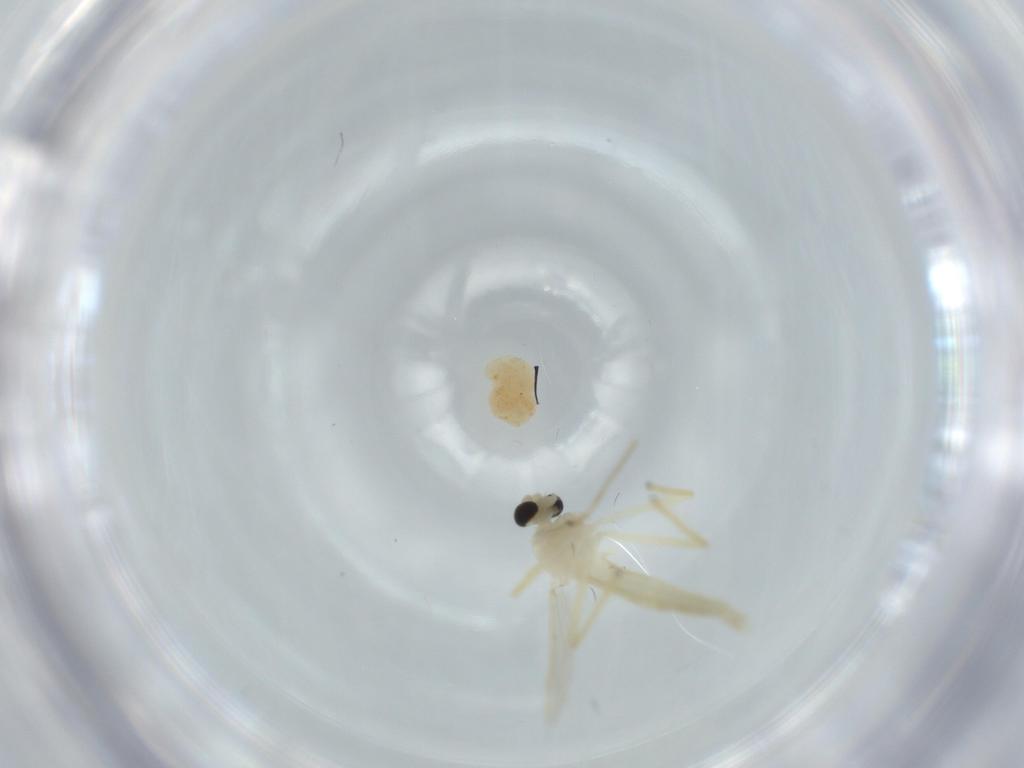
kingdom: Animalia
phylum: Arthropoda
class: Insecta
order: Diptera
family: Chironomidae
